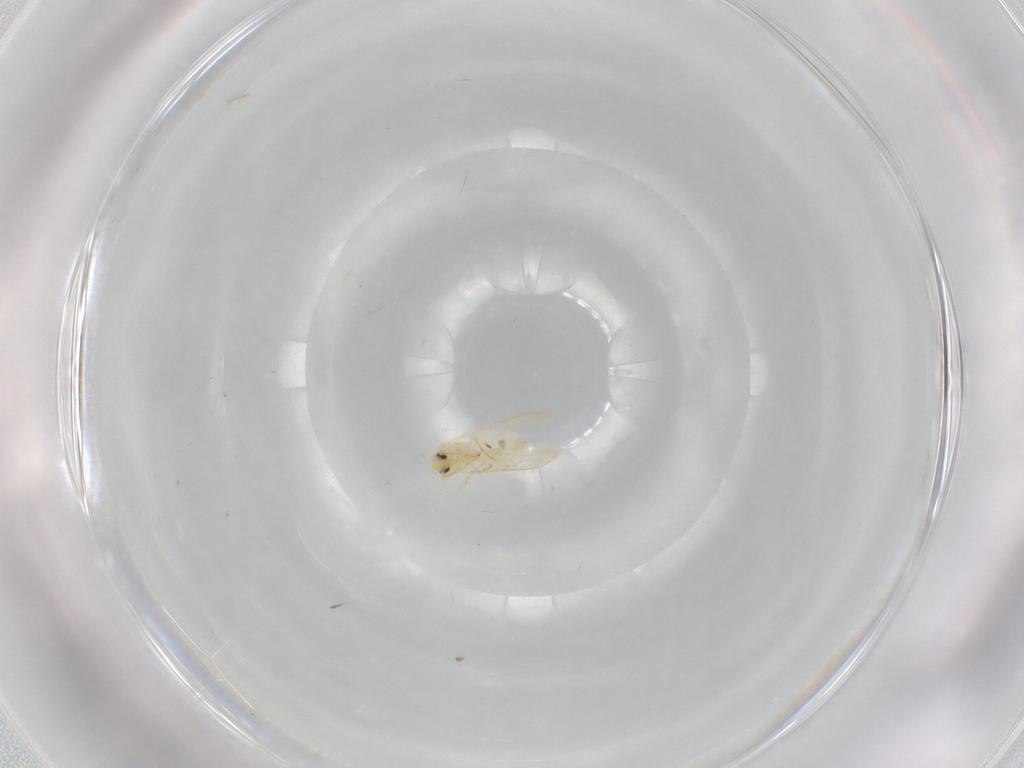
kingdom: Animalia
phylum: Arthropoda
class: Insecta
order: Hemiptera
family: Aleyrodidae
